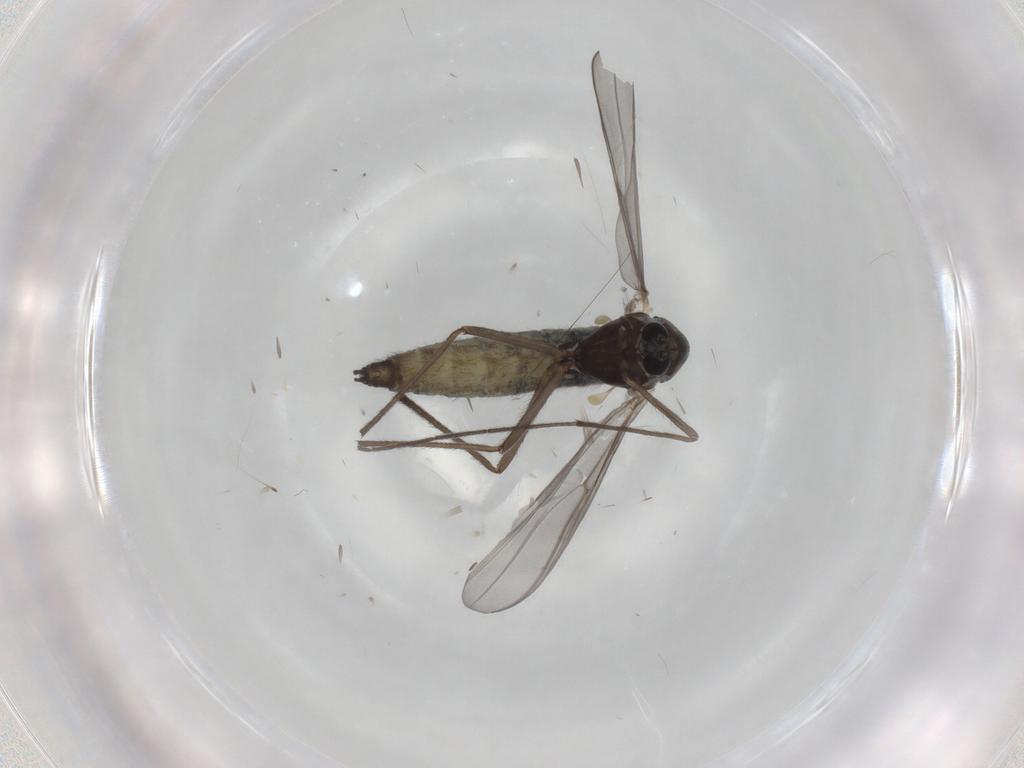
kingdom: Animalia
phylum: Arthropoda
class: Insecta
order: Diptera
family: Chironomidae
